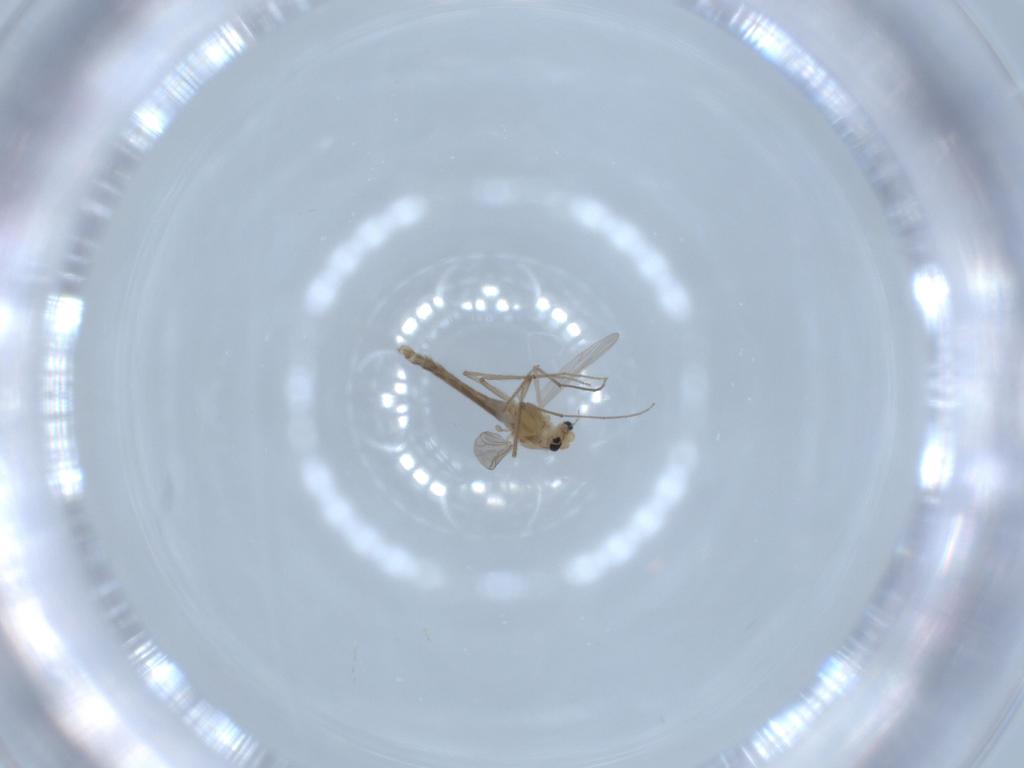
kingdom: Animalia
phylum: Arthropoda
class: Insecta
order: Diptera
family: Chironomidae
